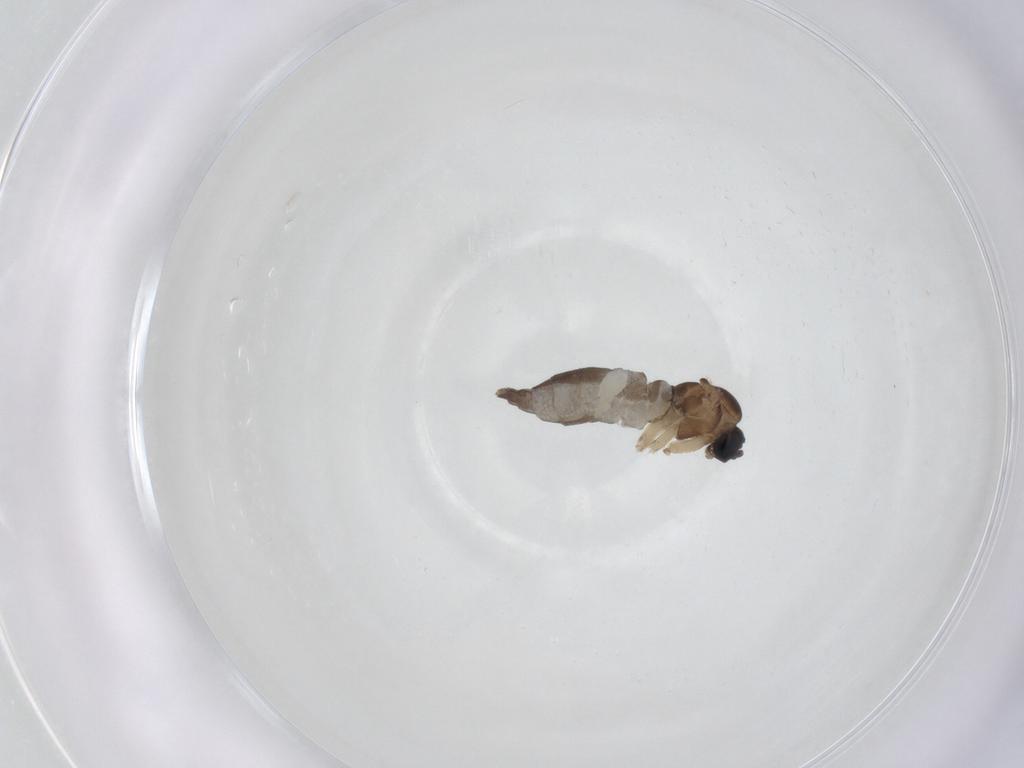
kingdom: Animalia
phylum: Arthropoda
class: Insecta
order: Diptera
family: Sciaridae
